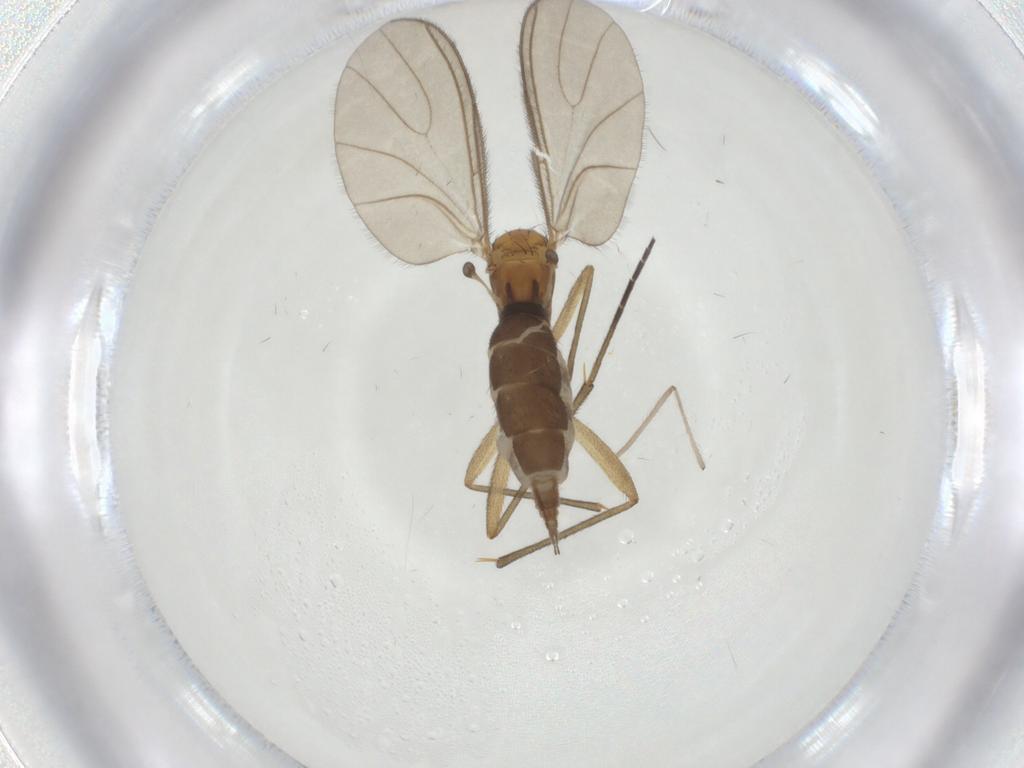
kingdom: Animalia
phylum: Arthropoda
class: Insecta
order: Diptera
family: Sciaridae
